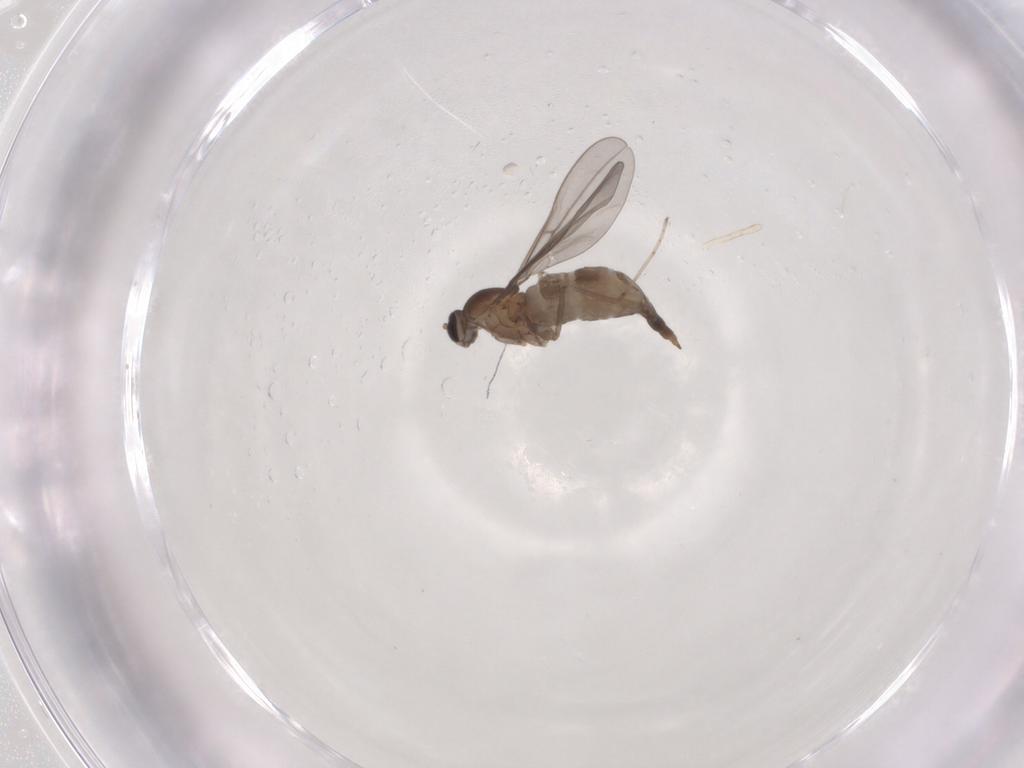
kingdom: Animalia
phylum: Arthropoda
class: Insecta
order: Diptera
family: Cecidomyiidae
